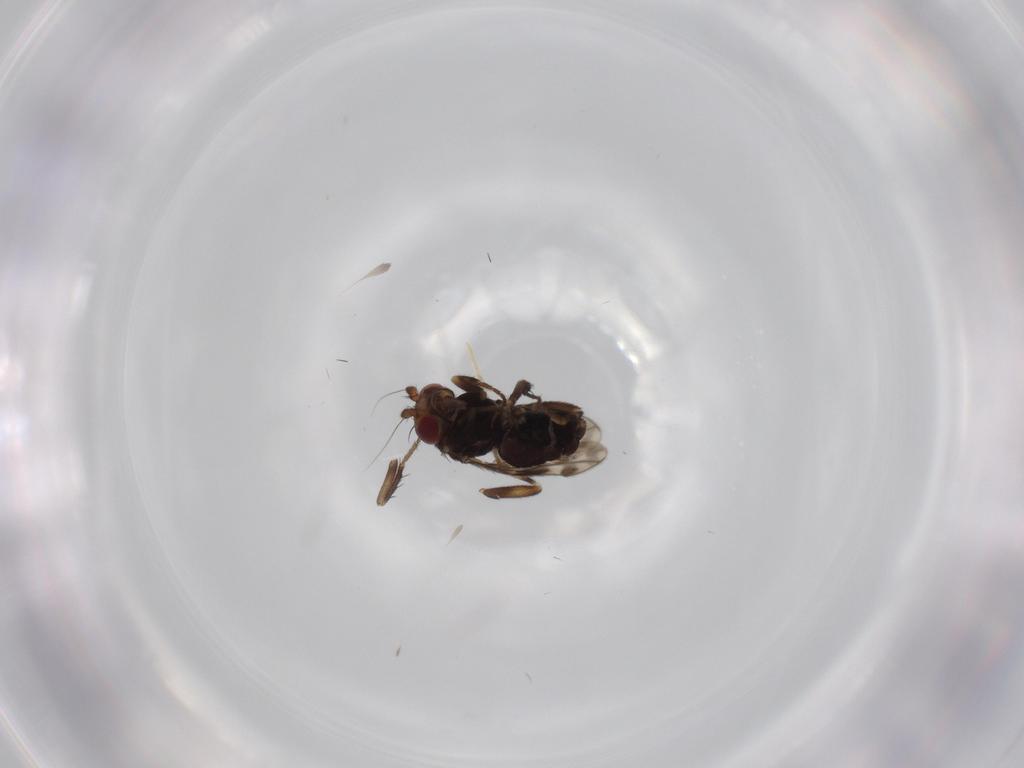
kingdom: Animalia
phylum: Arthropoda
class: Insecta
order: Diptera
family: Sphaeroceridae
